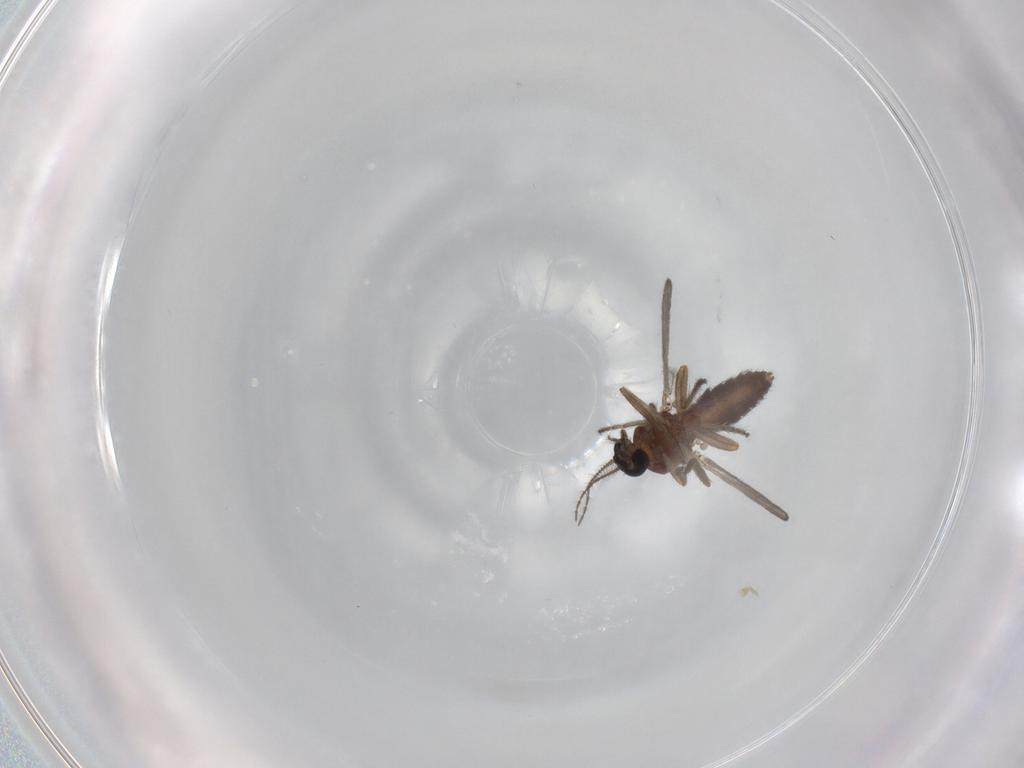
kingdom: Animalia
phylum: Arthropoda
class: Insecta
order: Diptera
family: Ceratopogonidae
